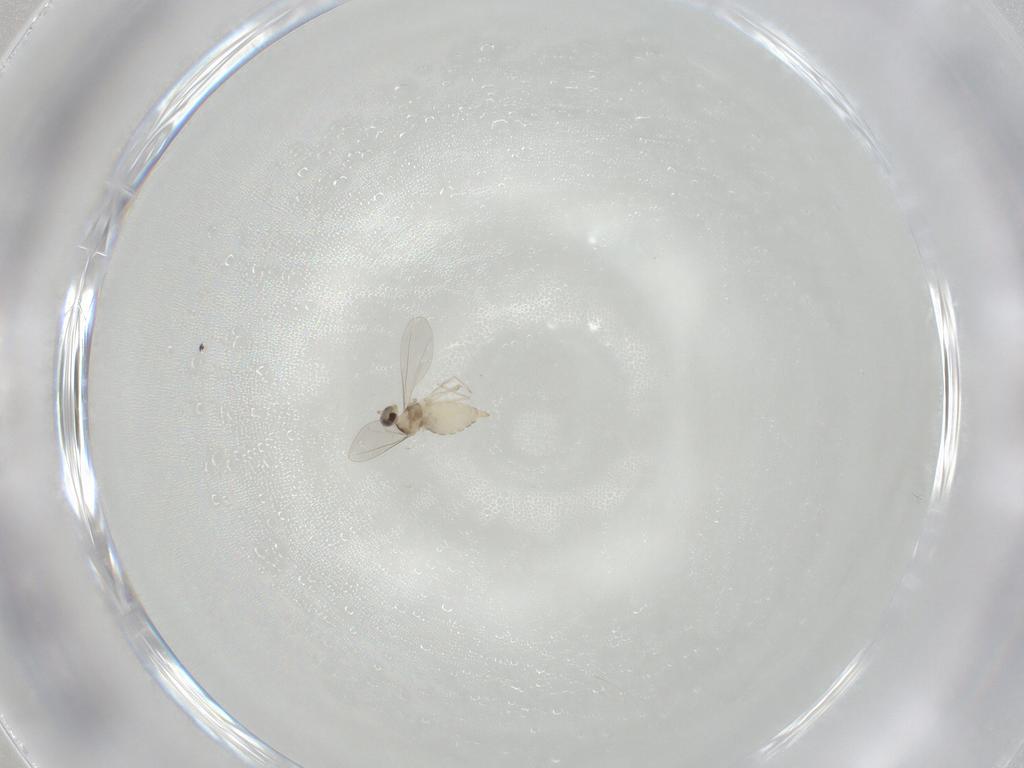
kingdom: Animalia
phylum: Arthropoda
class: Insecta
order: Diptera
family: Cecidomyiidae
